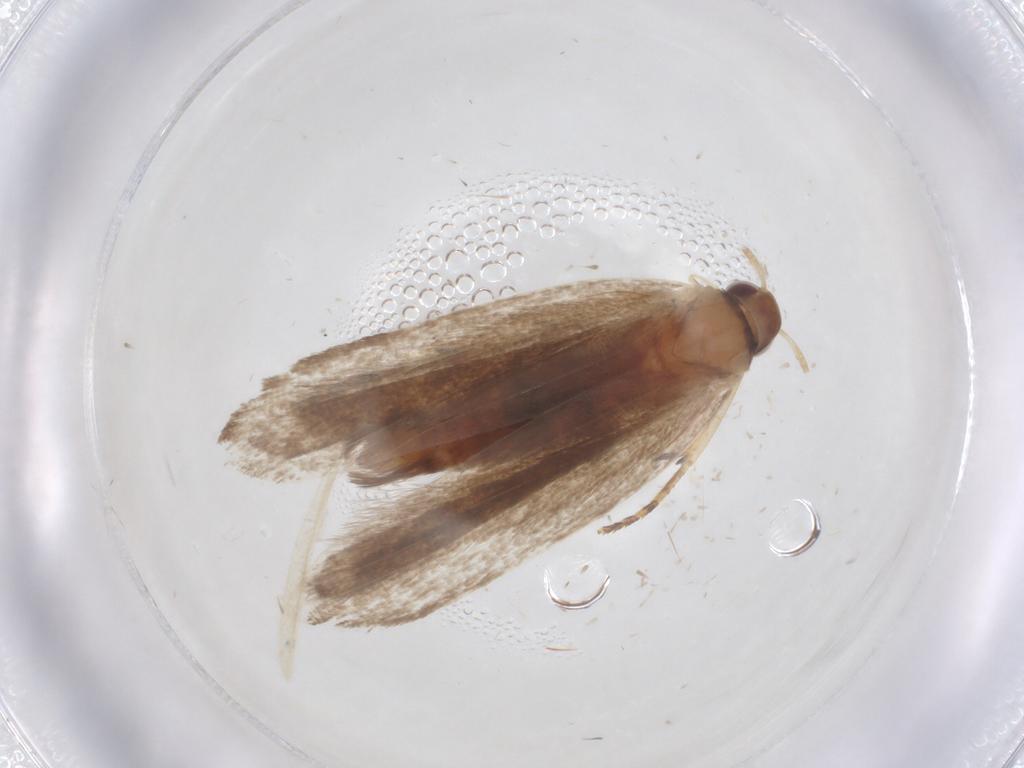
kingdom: Animalia
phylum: Arthropoda
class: Insecta
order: Lepidoptera
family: Gelechiidae
